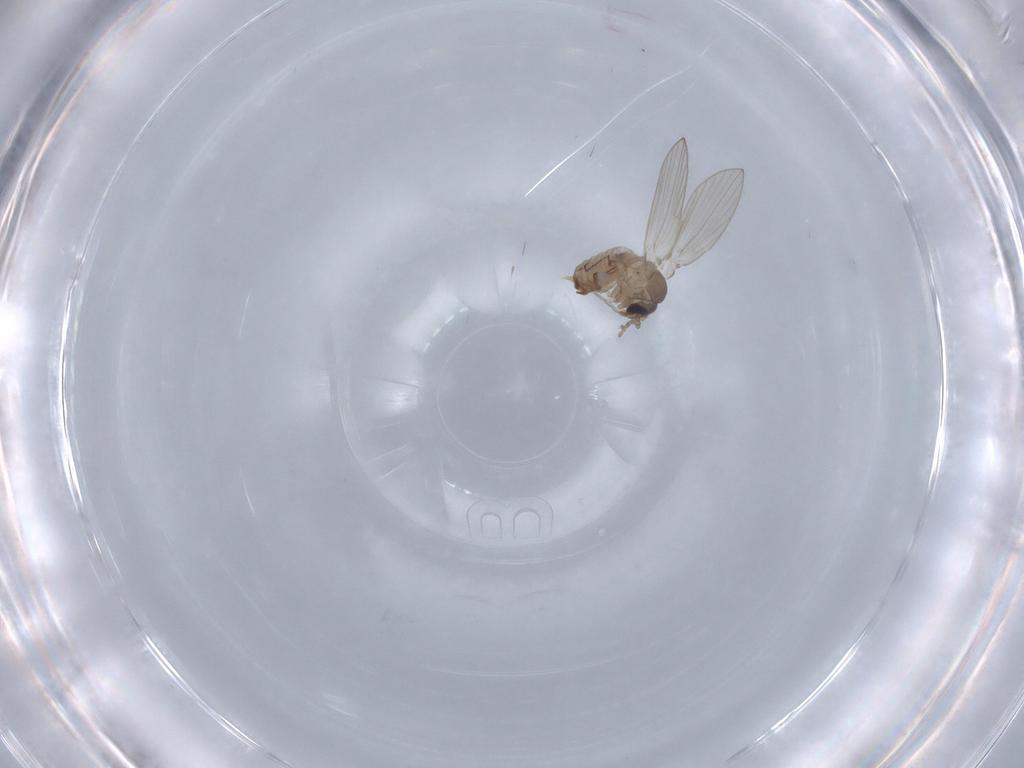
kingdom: Animalia
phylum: Arthropoda
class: Insecta
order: Diptera
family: Psychodidae
